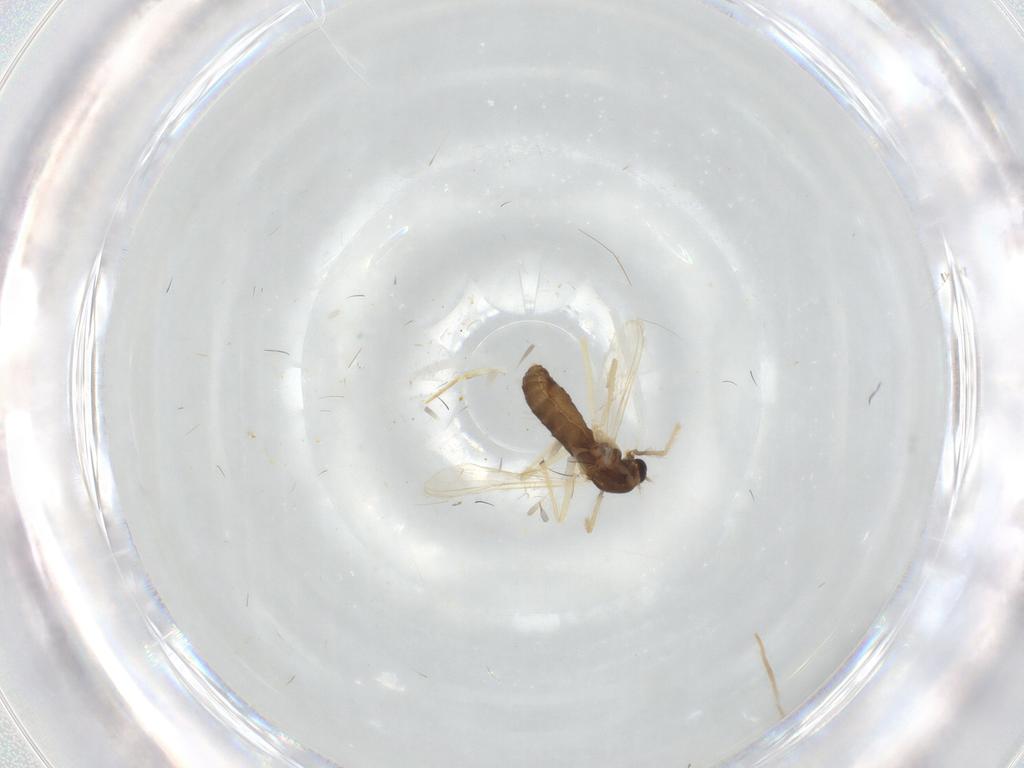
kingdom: Animalia
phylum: Arthropoda
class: Insecta
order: Diptera
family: Chironomidae
